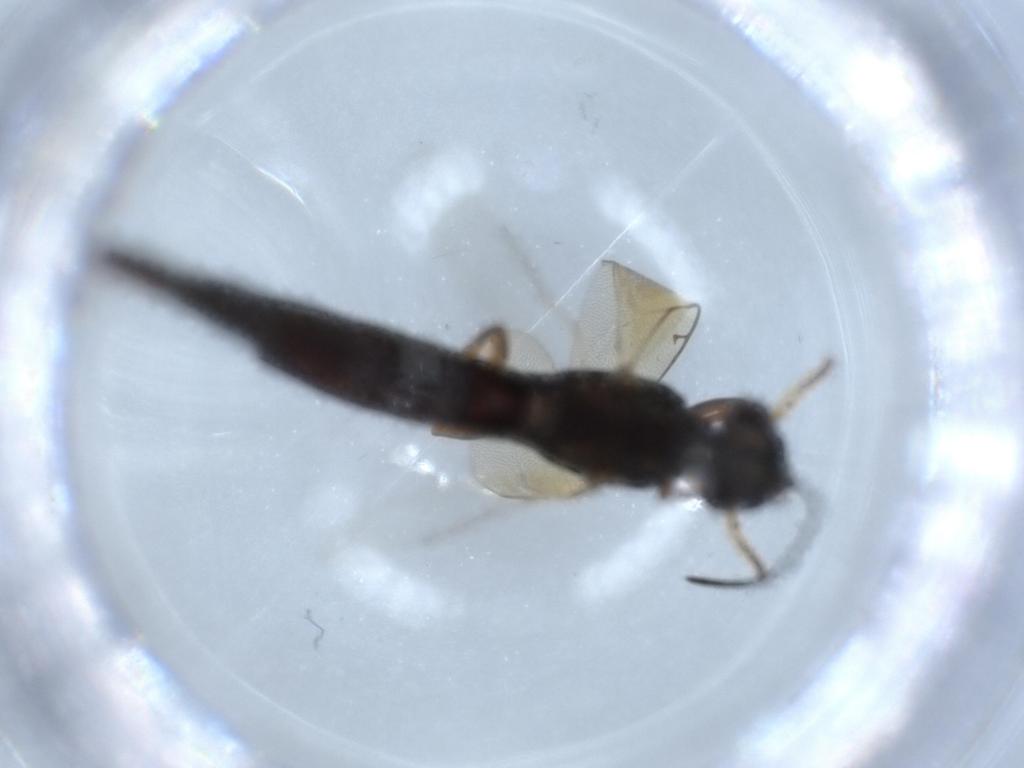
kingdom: Animalia
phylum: Arthropoda
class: Insecta
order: Hymenoptera
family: Eupelmidae
